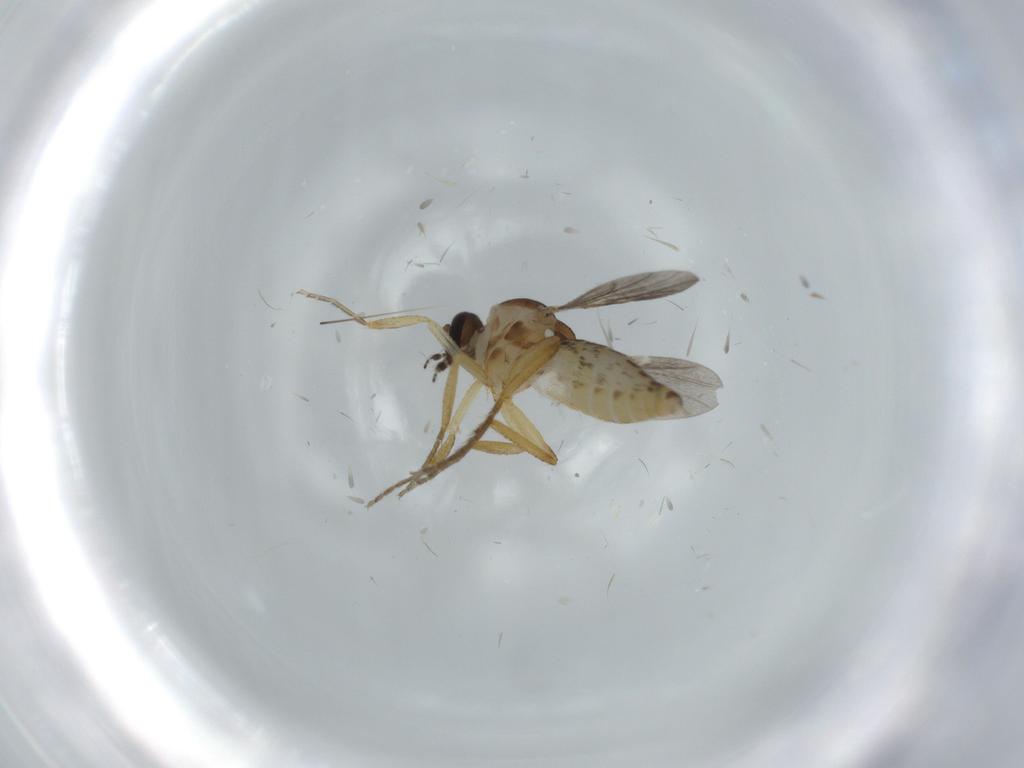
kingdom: Animalia
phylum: Arthropoda
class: Insecta
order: Diptera
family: Ceratopogonidae
